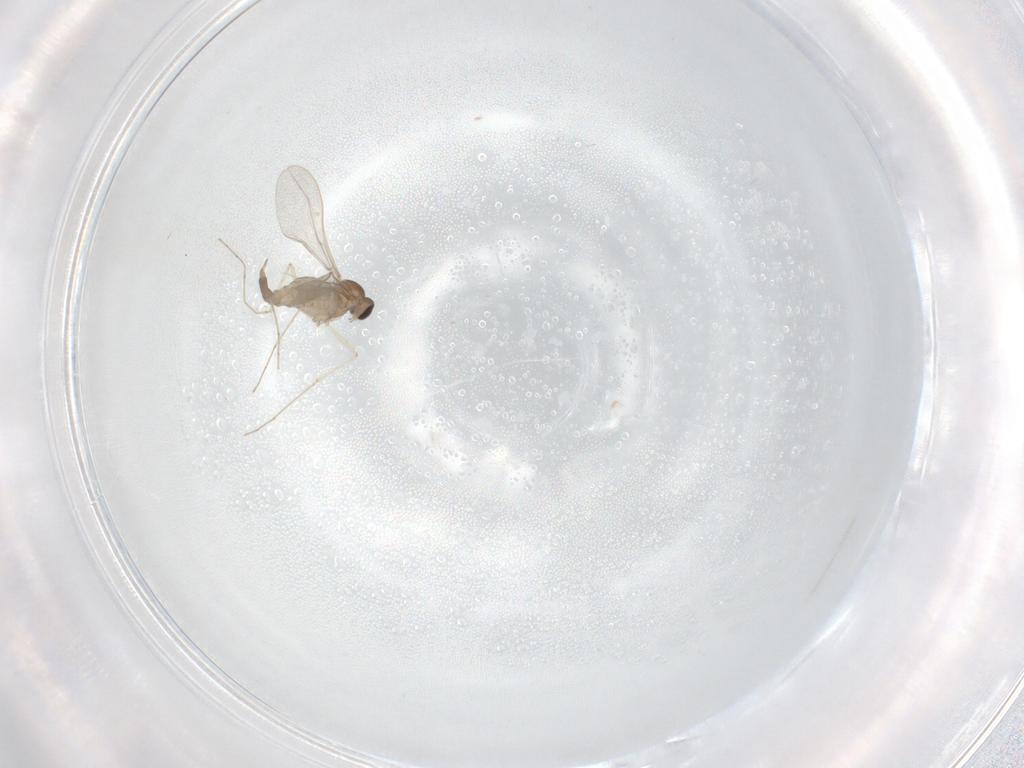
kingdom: Animalia
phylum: Arthropoda
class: Insecta
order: Diptera
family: Cecidomyiidae
